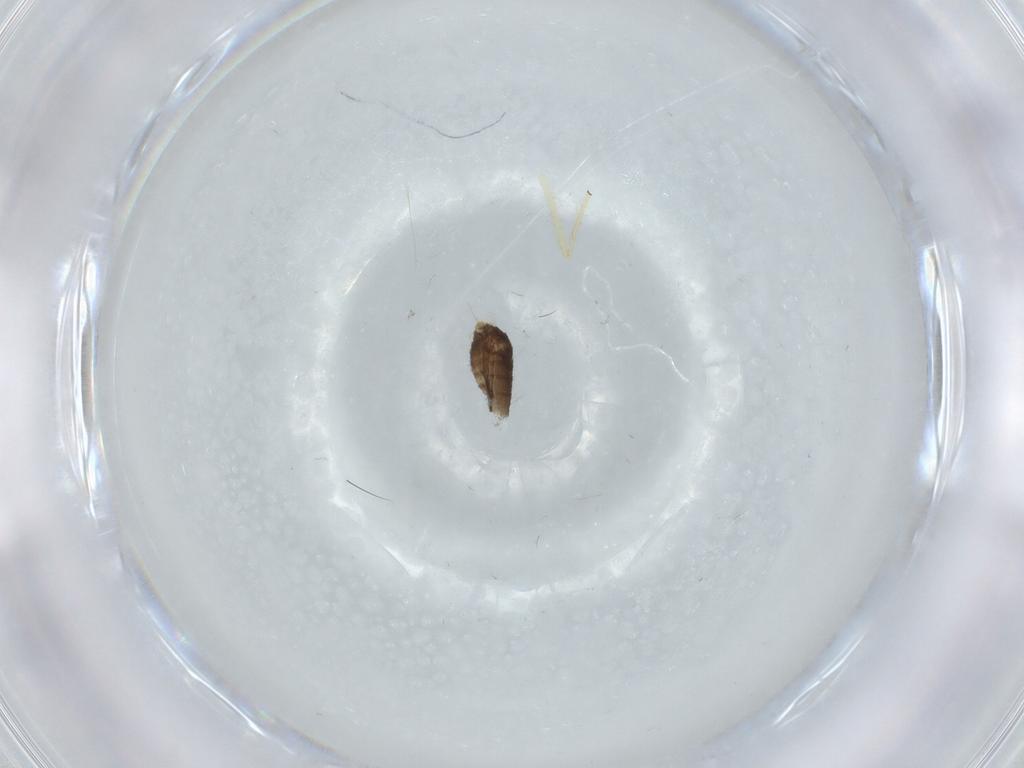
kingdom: Animalia
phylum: Arthropoda
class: Insecta
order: Diptera
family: Chironomidae
